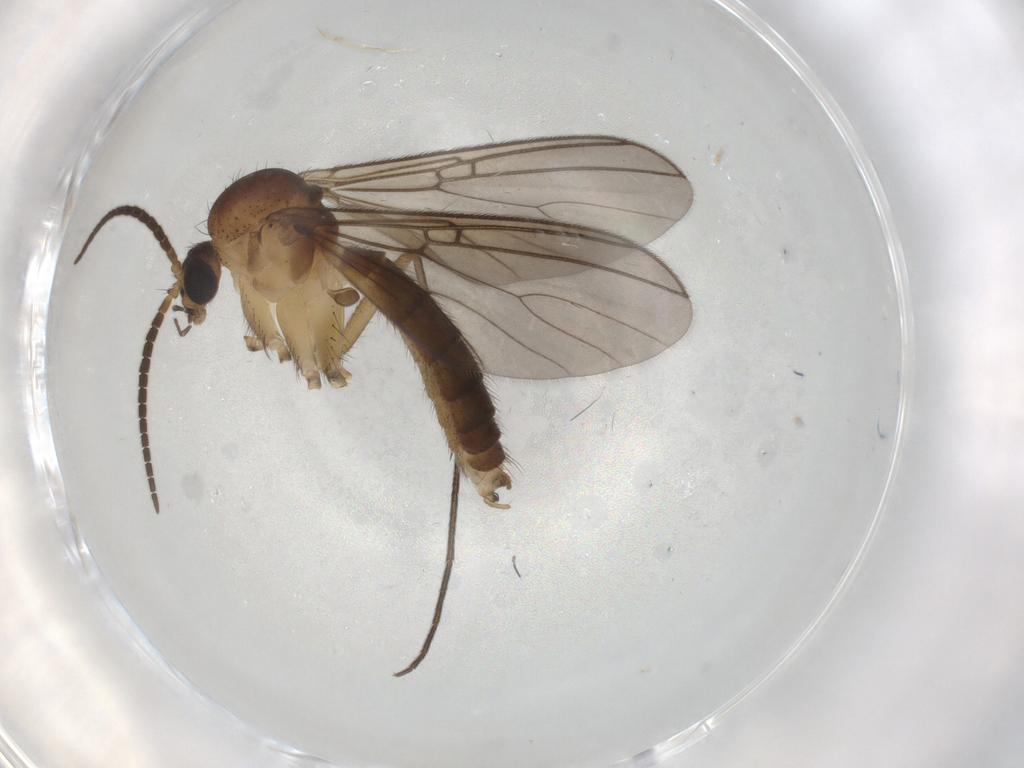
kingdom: Animalia
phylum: Arthropoda
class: Insecta
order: Diptera
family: Mycetophilidae
